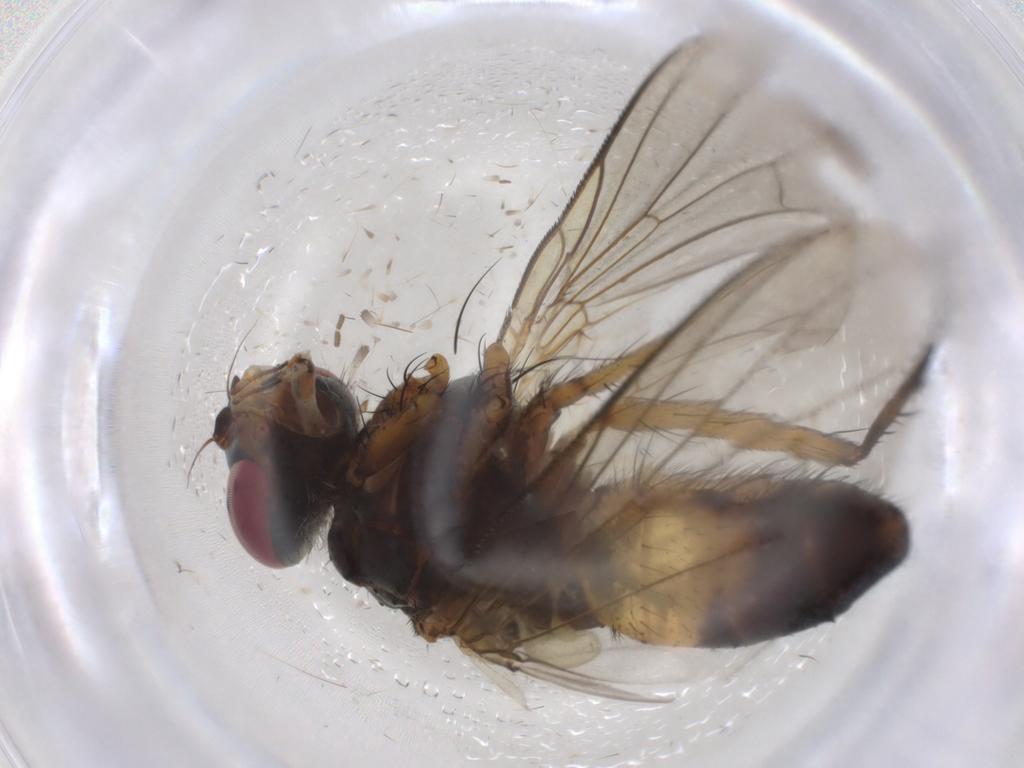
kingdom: Animalia
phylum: Arthropoda
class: Insecta
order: Diptera
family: Tachinidae
